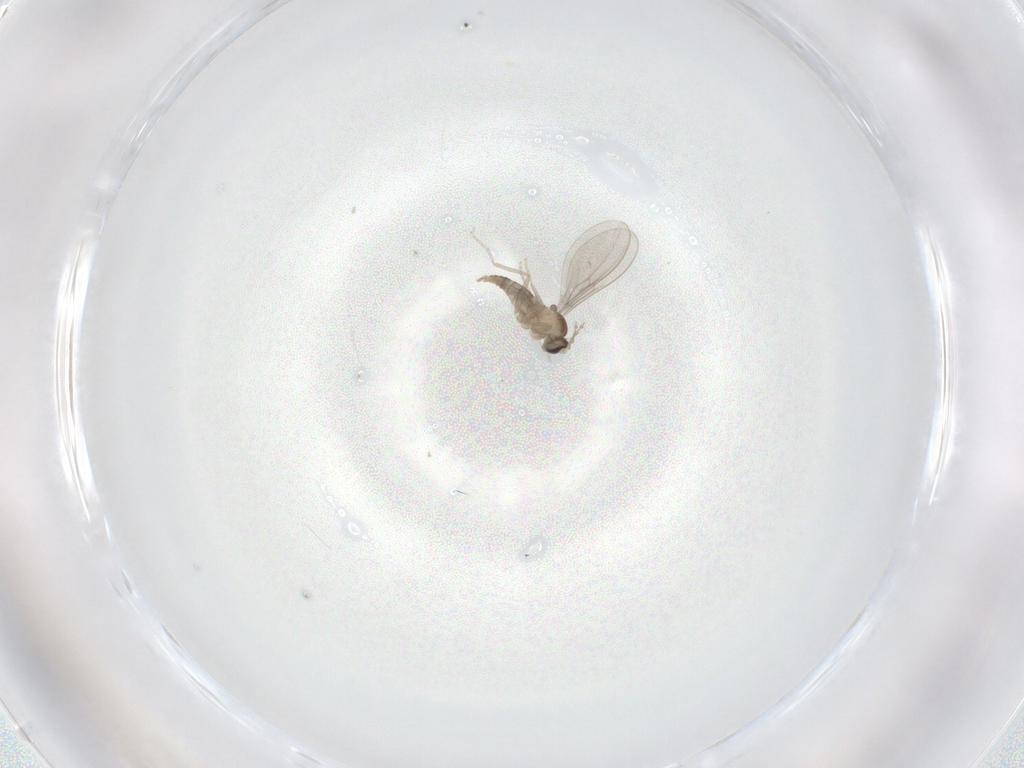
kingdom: Animalia
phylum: Arthropoda
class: Insecta
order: Diptera
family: Cecidomyiidae
